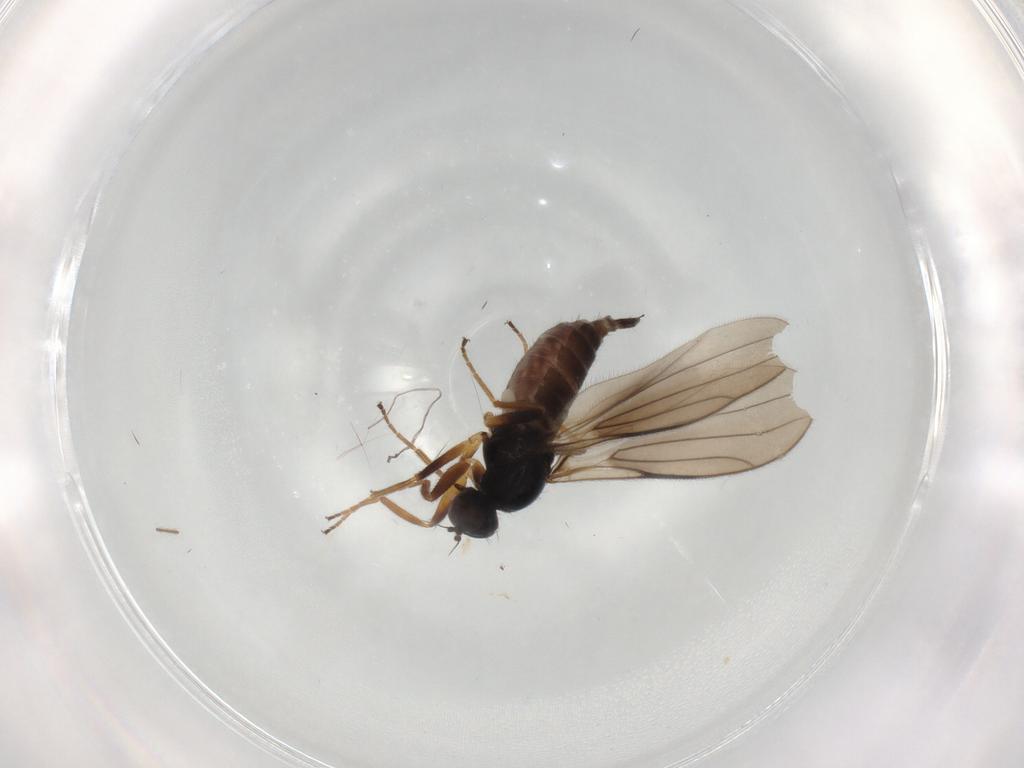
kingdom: Animalia
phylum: Arthropoda
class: Insecta
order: Diptera
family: Hybotidae
